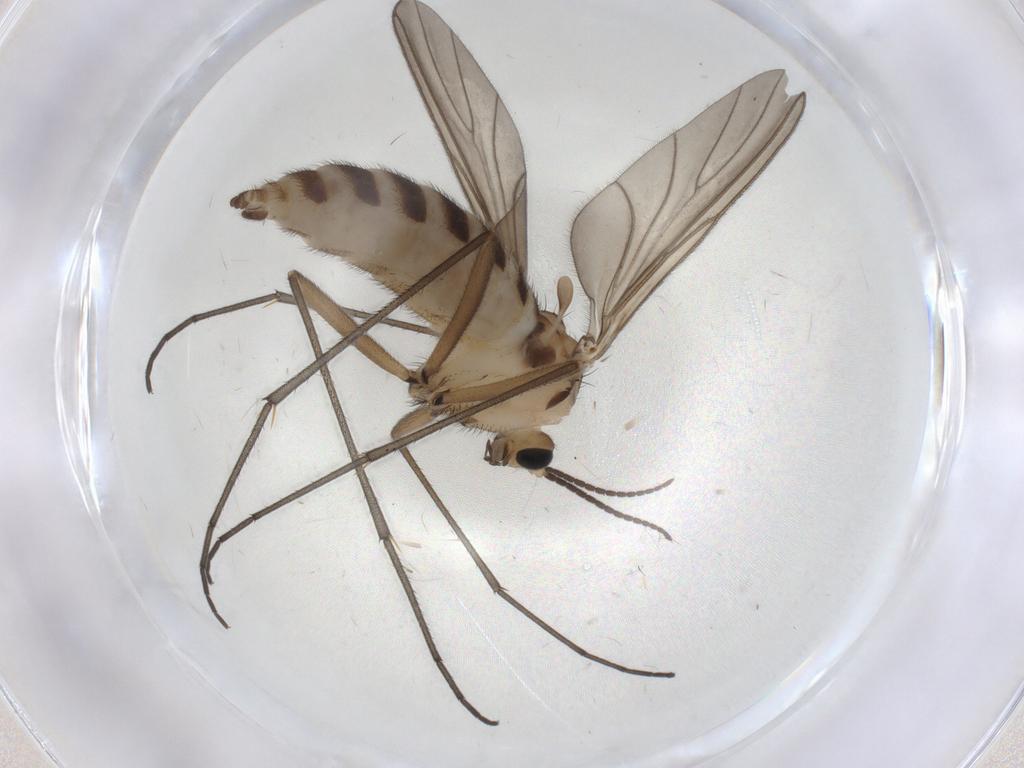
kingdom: Animalia
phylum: Arthropoda
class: Insecta
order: Diptera
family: Sciaridae
